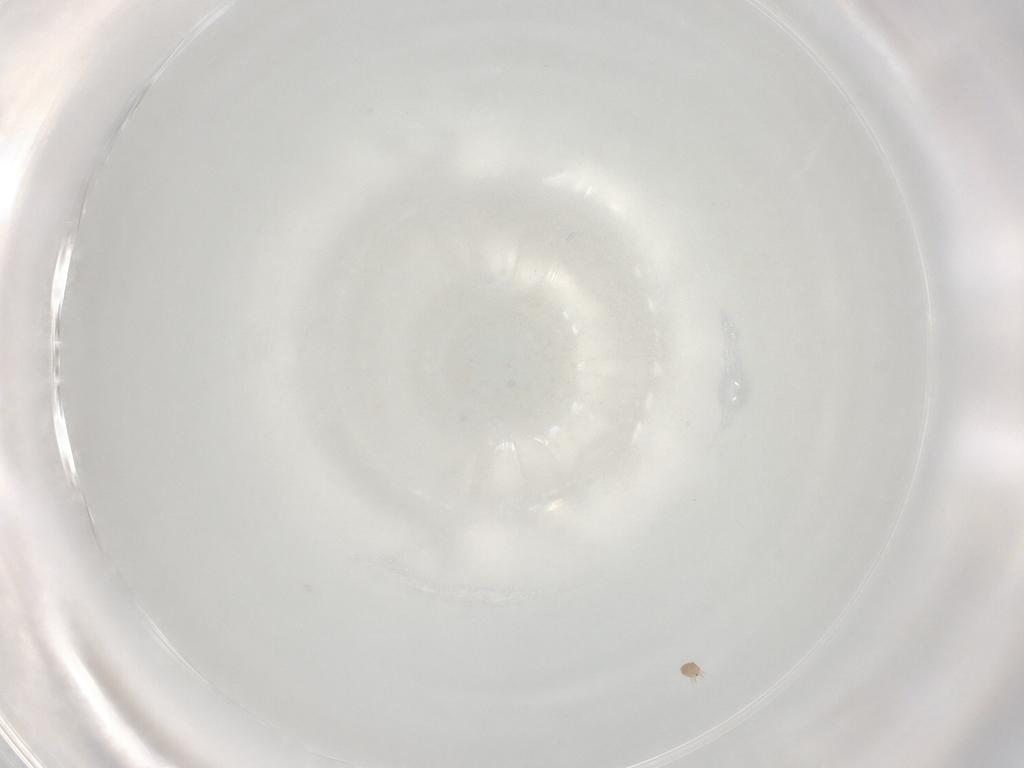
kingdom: Animalia
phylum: Arthropoda
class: Arachnida
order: Sarcoptiformes
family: Hemisarcoptidae
